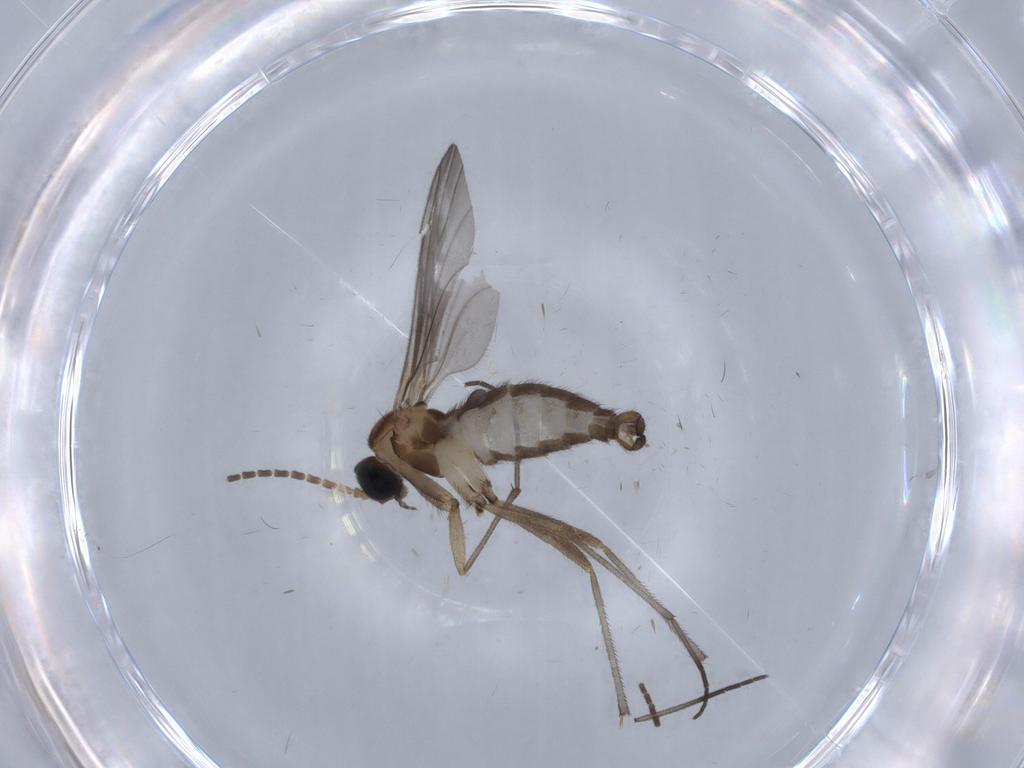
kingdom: Animalia
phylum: Arthropoda
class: Insecta
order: Diptera
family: Sciaridae
